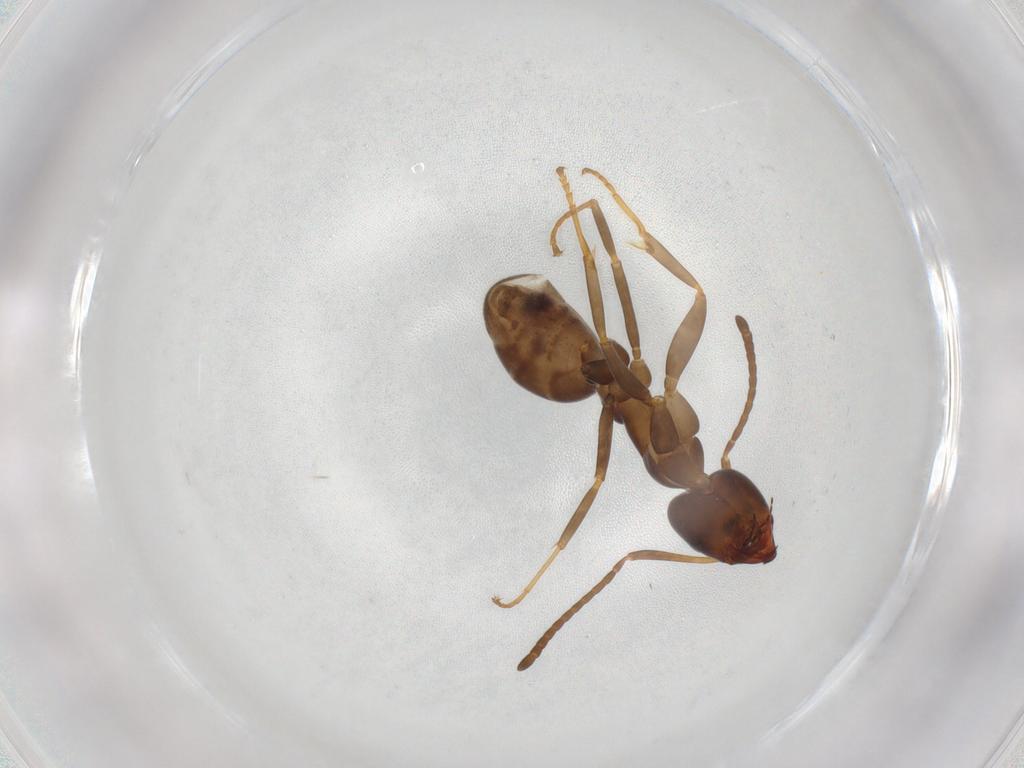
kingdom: Animalia
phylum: Arthropoda
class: Insecta
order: Hymenoptera
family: Formicidae
